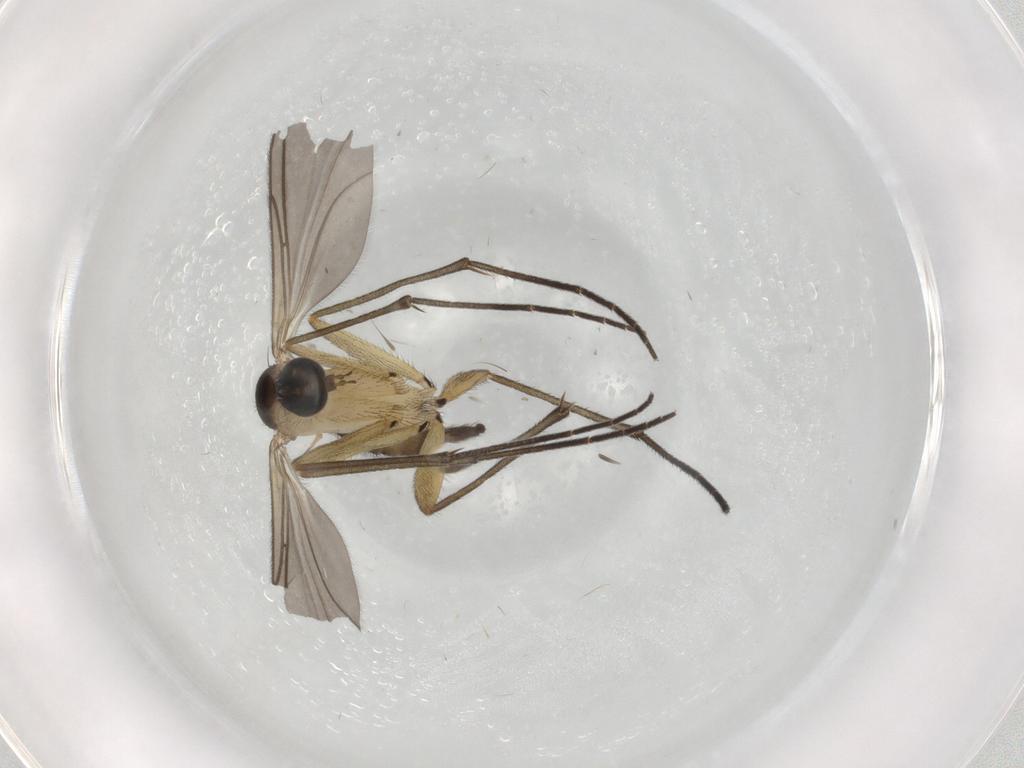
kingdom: Animalia
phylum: Arthropoda
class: Insecta
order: Diptera
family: Sciaridae
